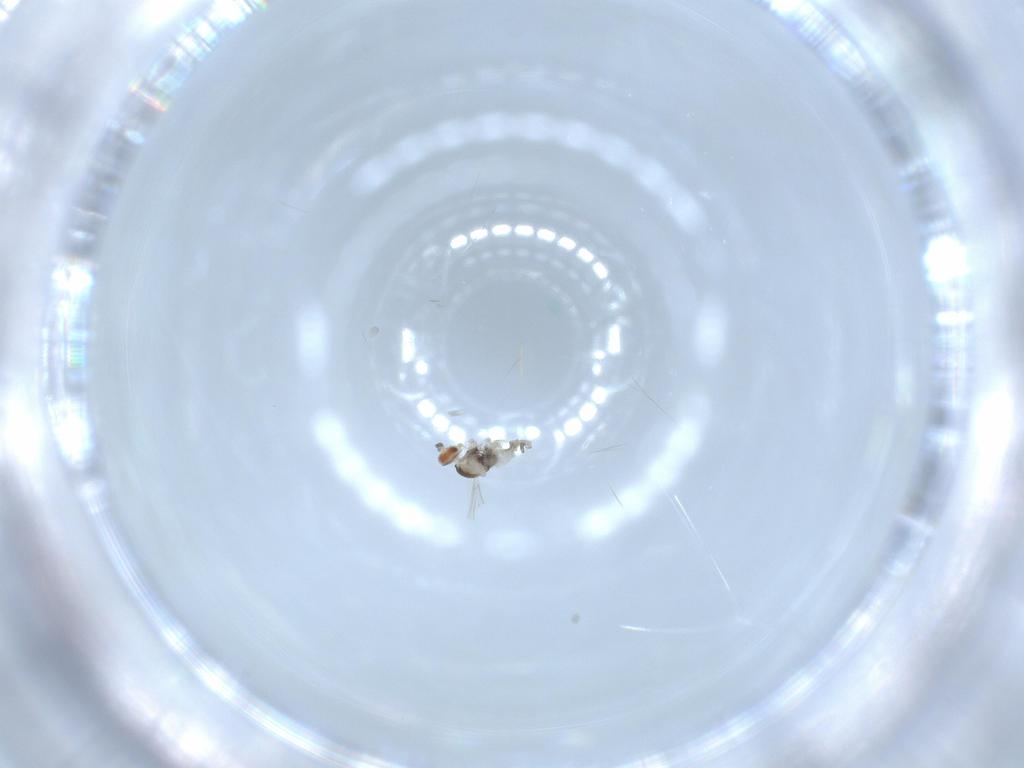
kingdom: Animalia
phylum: Arthropoda
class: Insecta
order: Diptera
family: Cecidomyiidae
